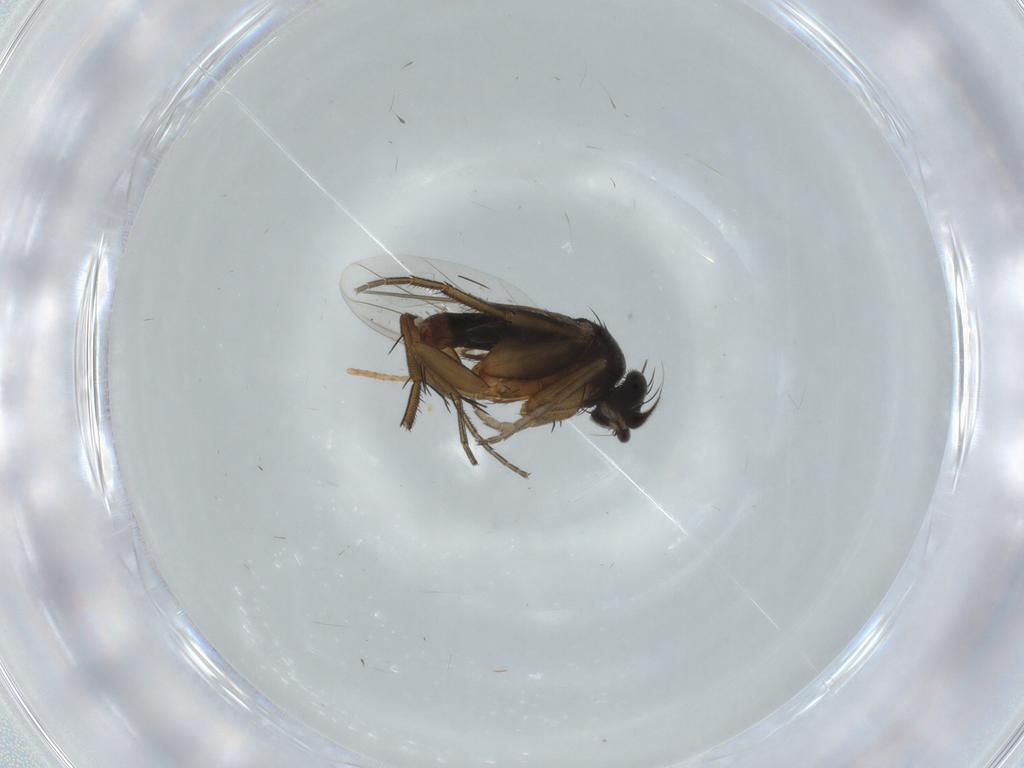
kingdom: Animalia
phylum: Arthropoda
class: Insecta
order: Diptera
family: Phoridae
